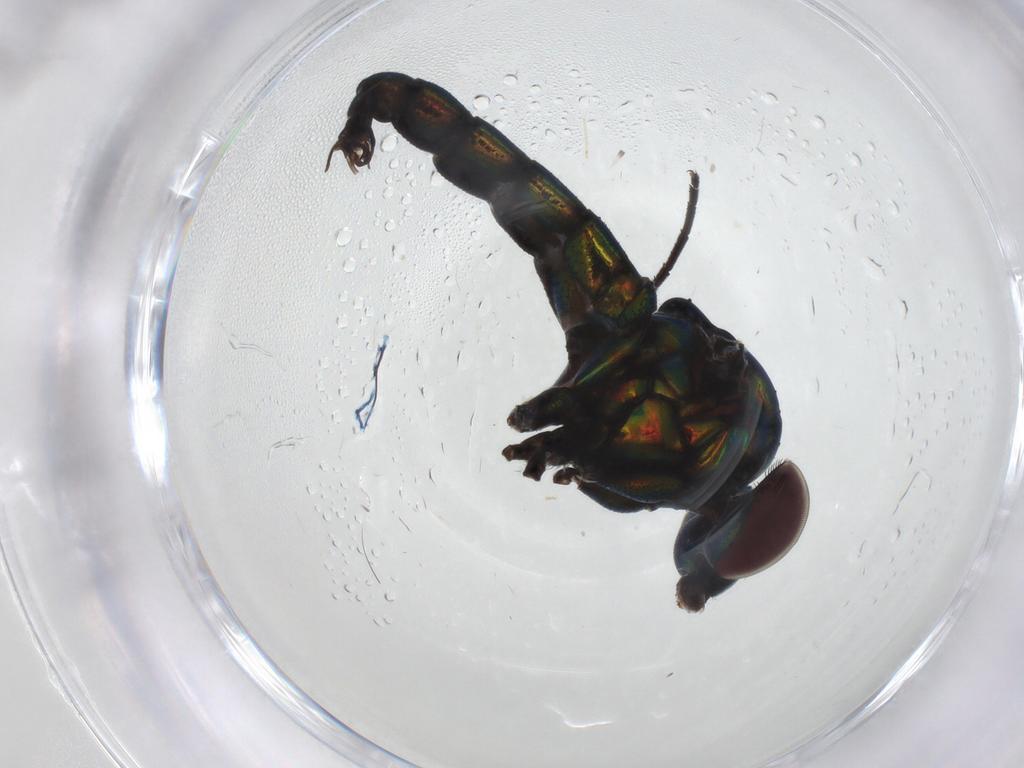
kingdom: Animalia
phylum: Arthropoda
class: Insecta
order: Diptera
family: Dolichopodidae
